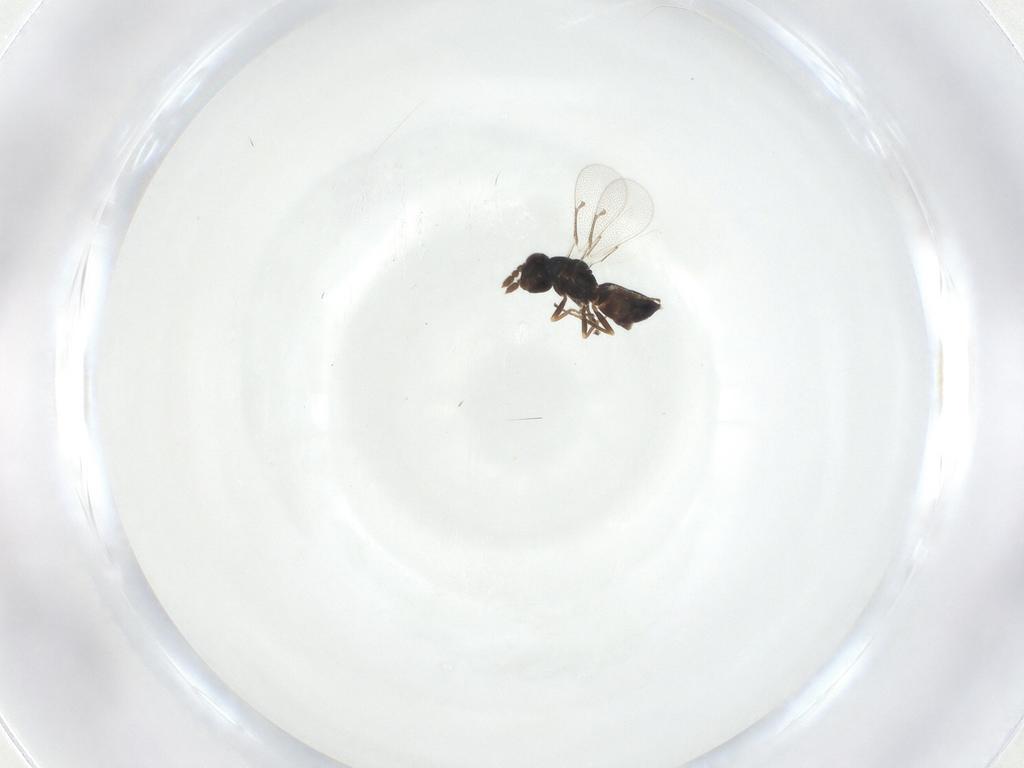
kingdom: Animalia
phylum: Arthropoda
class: Insecta
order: Hymenoptera
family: Eulophidae
